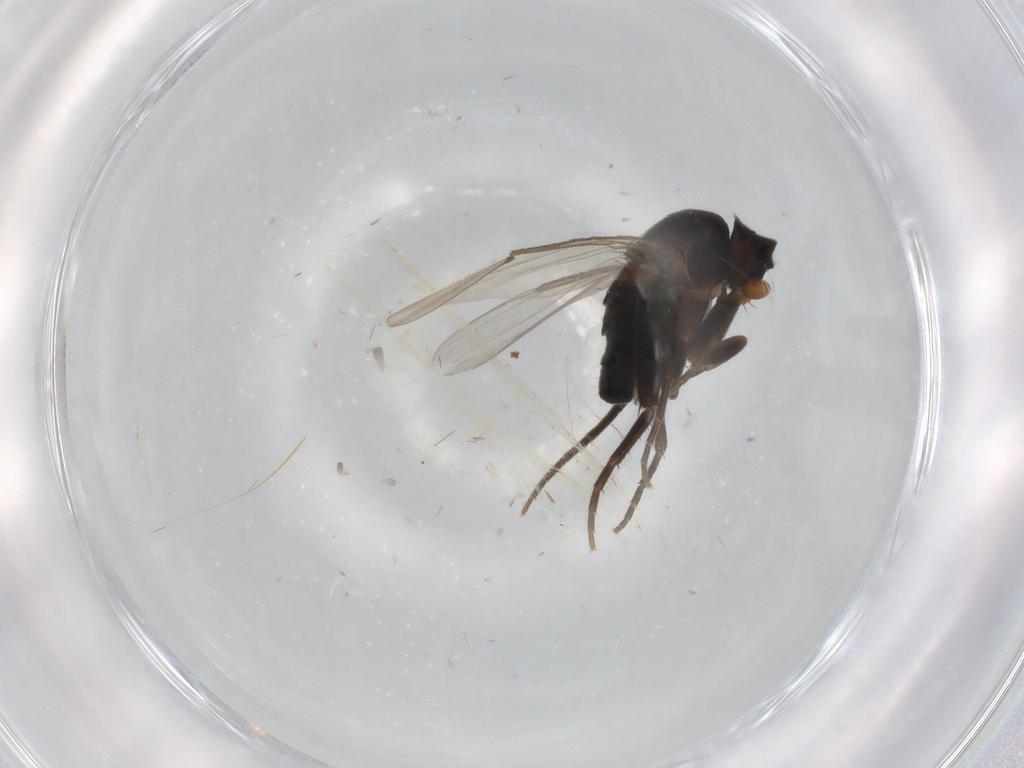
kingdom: Animalia
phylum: Arthropoda
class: Insecta
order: Diptera
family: Phoridae
